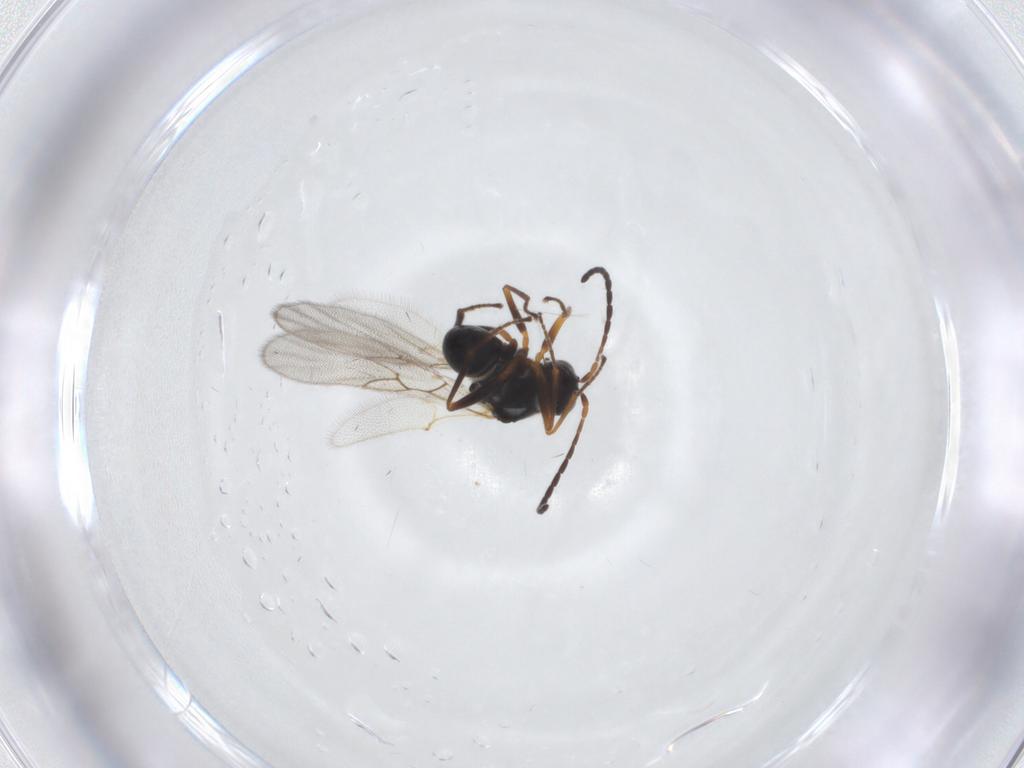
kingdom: Animalia
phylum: Arthropoda
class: Insecta
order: Hymenoptera
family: Figitidae
